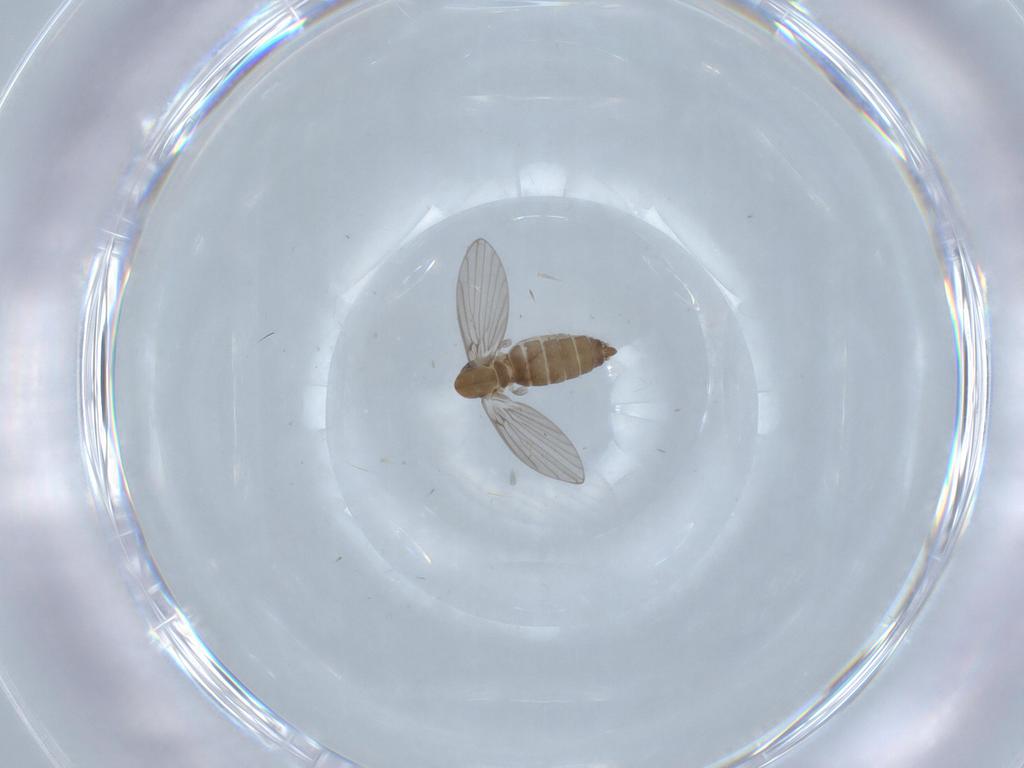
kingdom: Animalia
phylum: Arthropoda
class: Insecta
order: Diptera
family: Psychodidae
